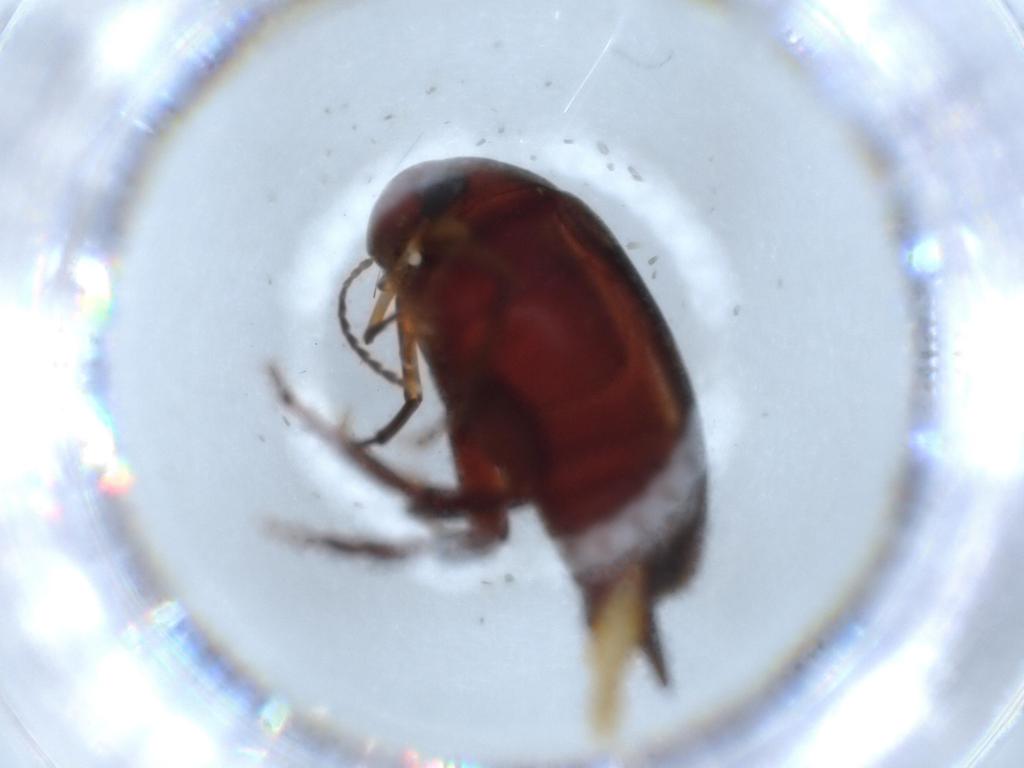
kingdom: Animalia
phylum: Arthropoda
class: Insecta
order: Coleoptera
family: Mordellidae
